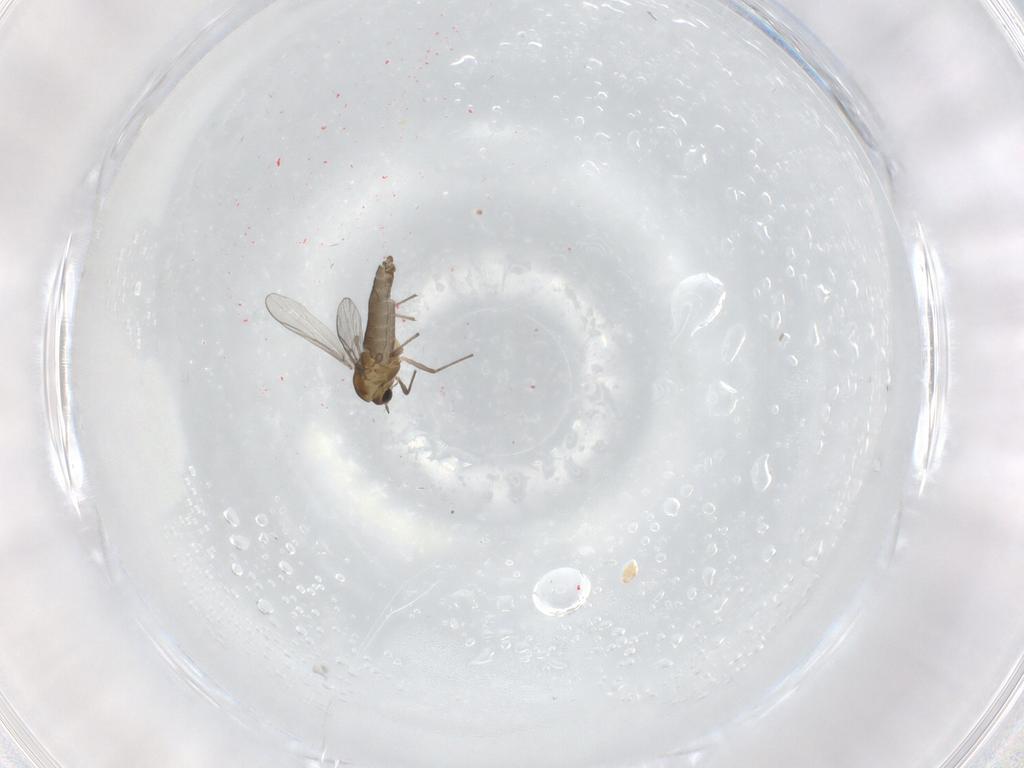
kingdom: Animalia
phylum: Arthropoda
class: Insecta
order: Diptera
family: Chironomidae
